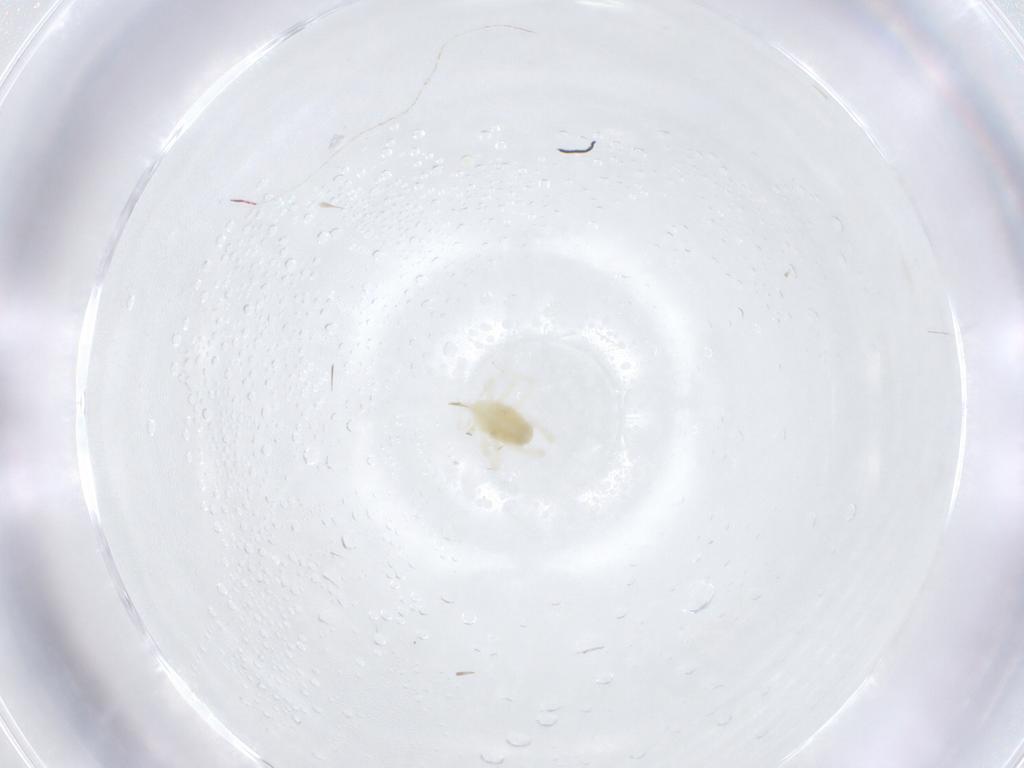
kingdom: Animalia
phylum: Arthropoda
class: Arachnida
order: Trombidiformes
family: Bdellidae
